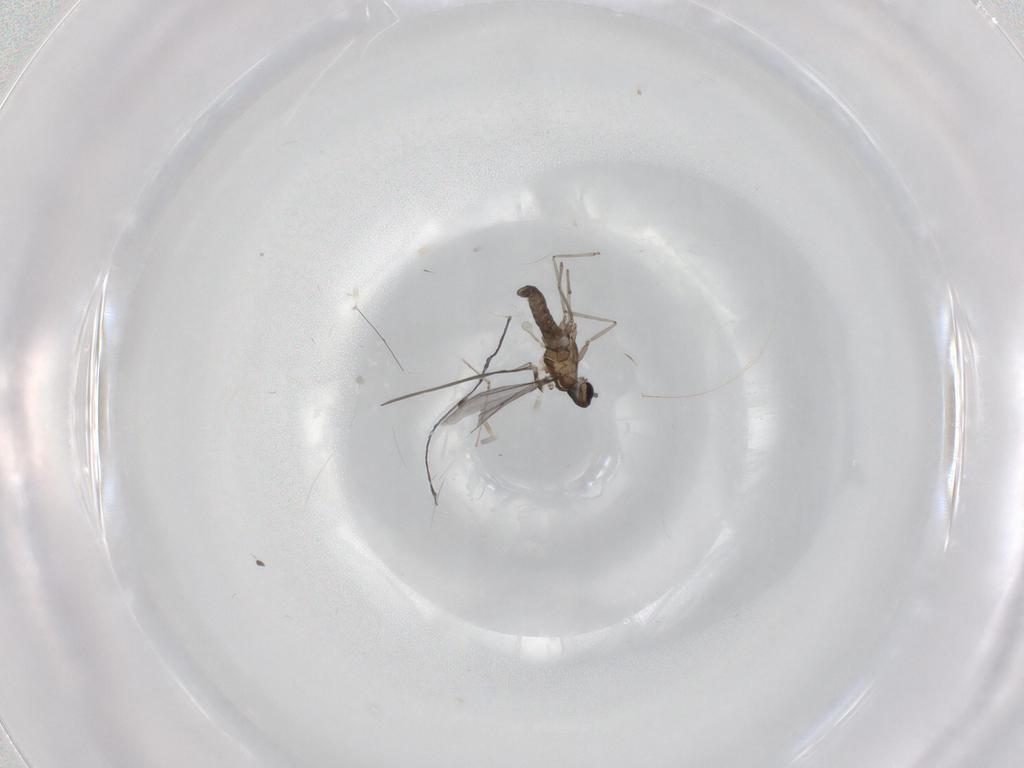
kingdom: Animalia
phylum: Arthropoda
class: Insecta
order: Diptera
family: Cecidomyiidae
